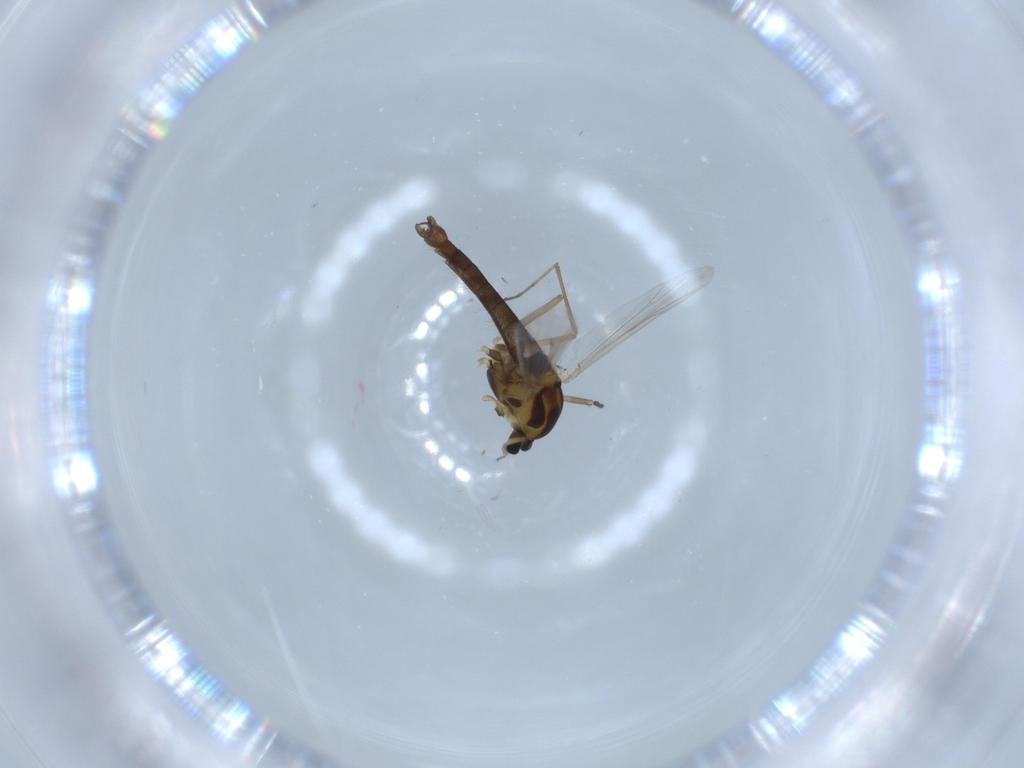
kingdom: Animalia
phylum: Arthropoda
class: Insecta
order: Diptera
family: Chironomidae
